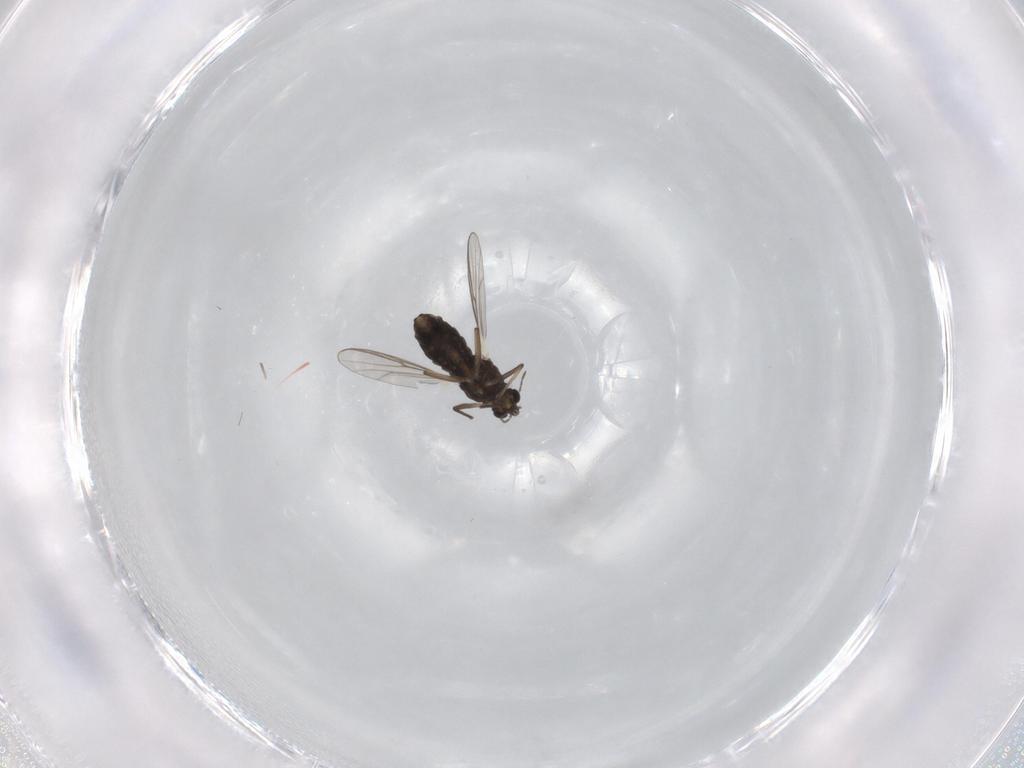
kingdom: Animalia
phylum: Arthropoda
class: Insecta
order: Diptera
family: Chironomidae
